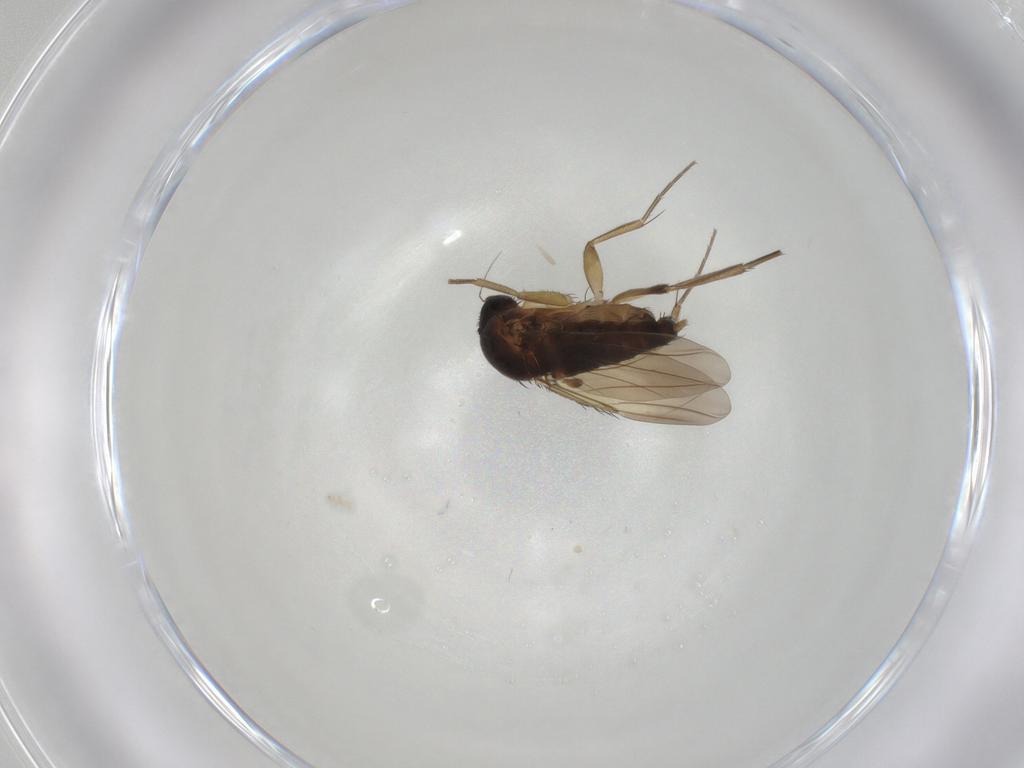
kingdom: Animalia
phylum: Arthropoda
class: Insecta
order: Diptera
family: Phoridae
